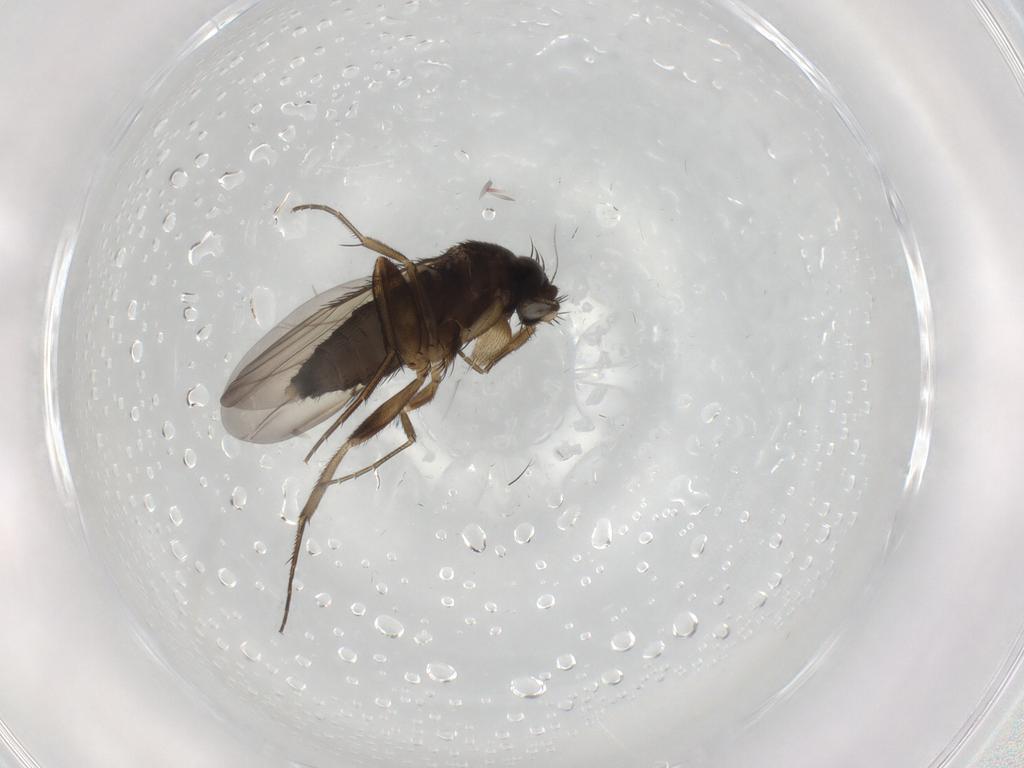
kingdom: Animalia
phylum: Arthropoda
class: Insecta
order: Diptera
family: Phoridae
